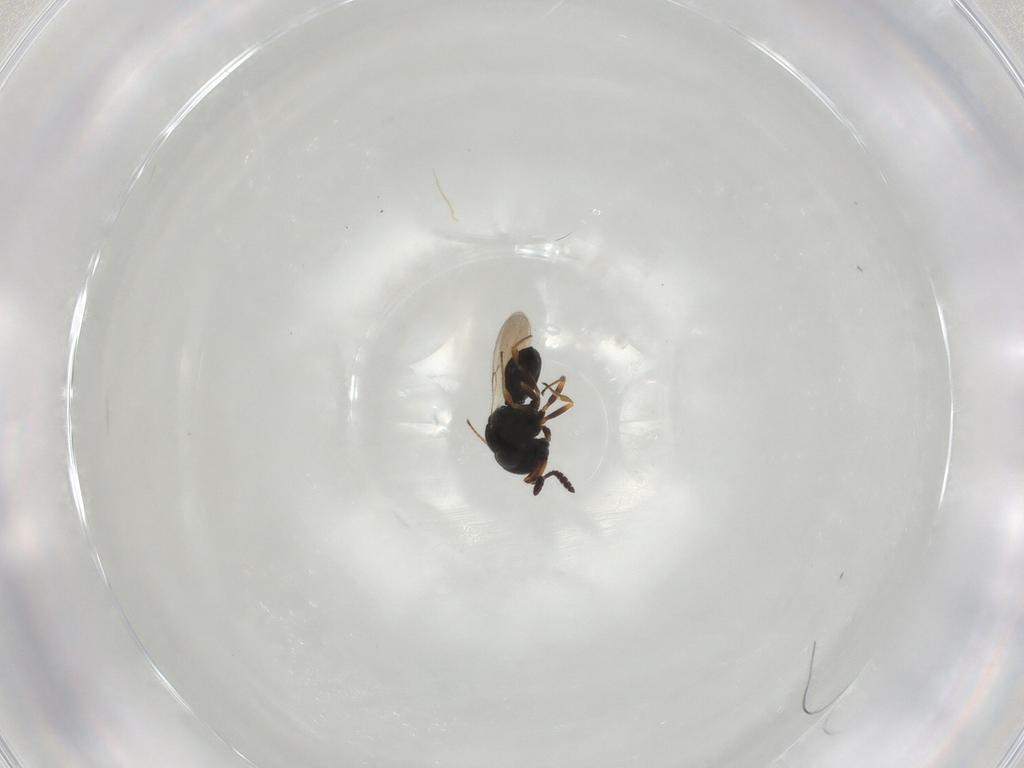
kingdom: Animalia
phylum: Arthropoda
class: Insecta
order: Hymenoptera
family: Scelionidae
